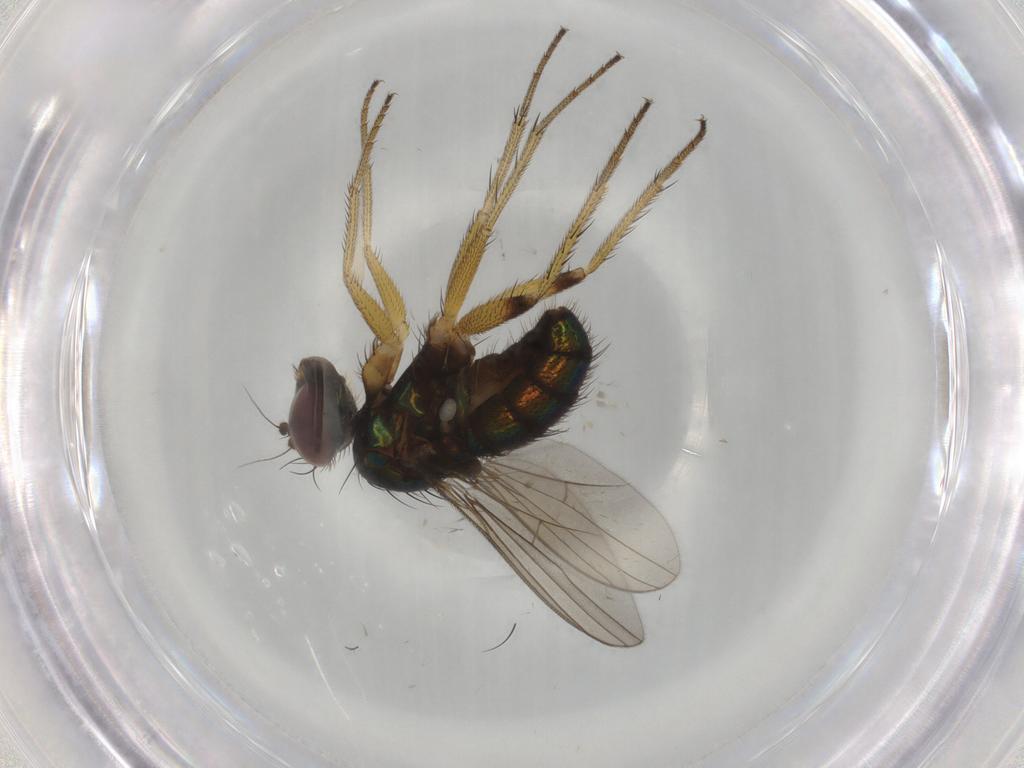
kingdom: Animalia
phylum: Arthropoda
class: Insecta
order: Diptera
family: Dolichopodidae
